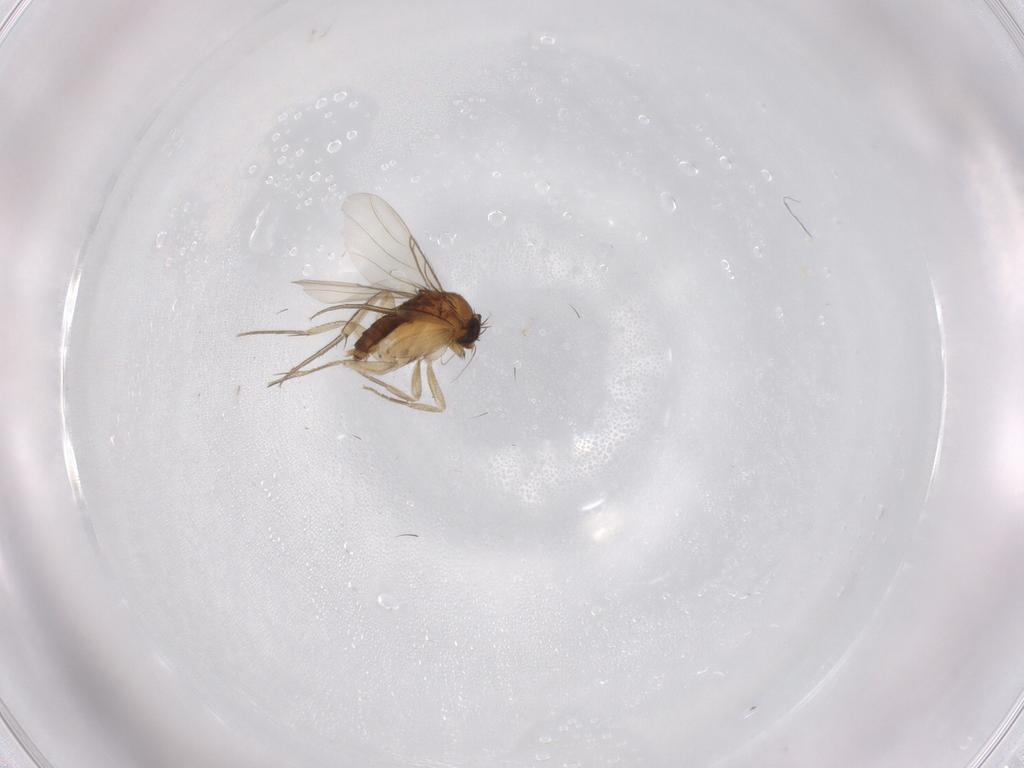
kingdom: Animalia
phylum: Arthropoda
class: Insecta
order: Diptera
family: Phoridae
